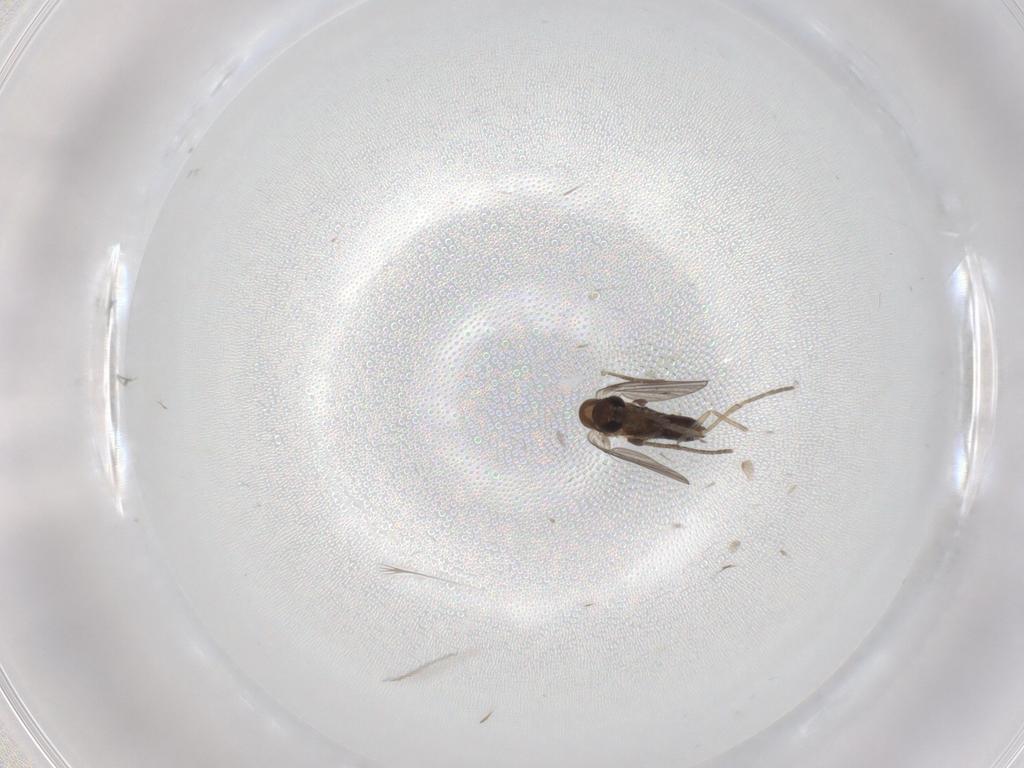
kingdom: Animalia
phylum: Arthropoda
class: Insecta
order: Diptera
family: Cecidomyiidae
